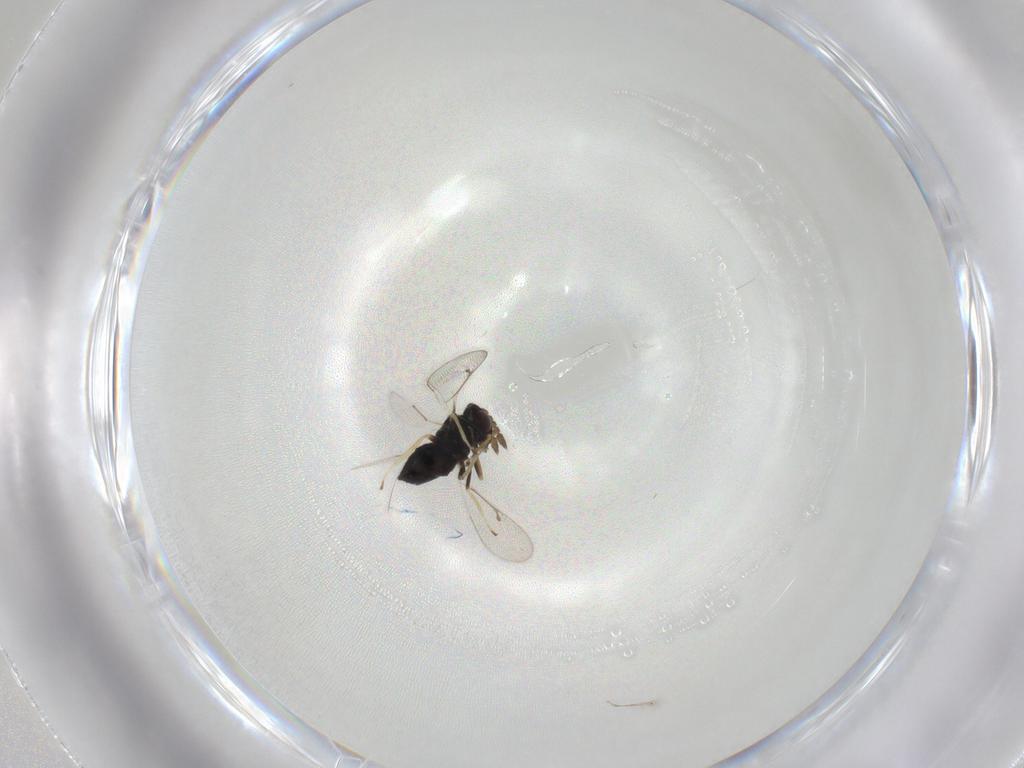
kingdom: Animalia
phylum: Arthropoda
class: Insecta
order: Hymenoptera
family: Eulophidae
